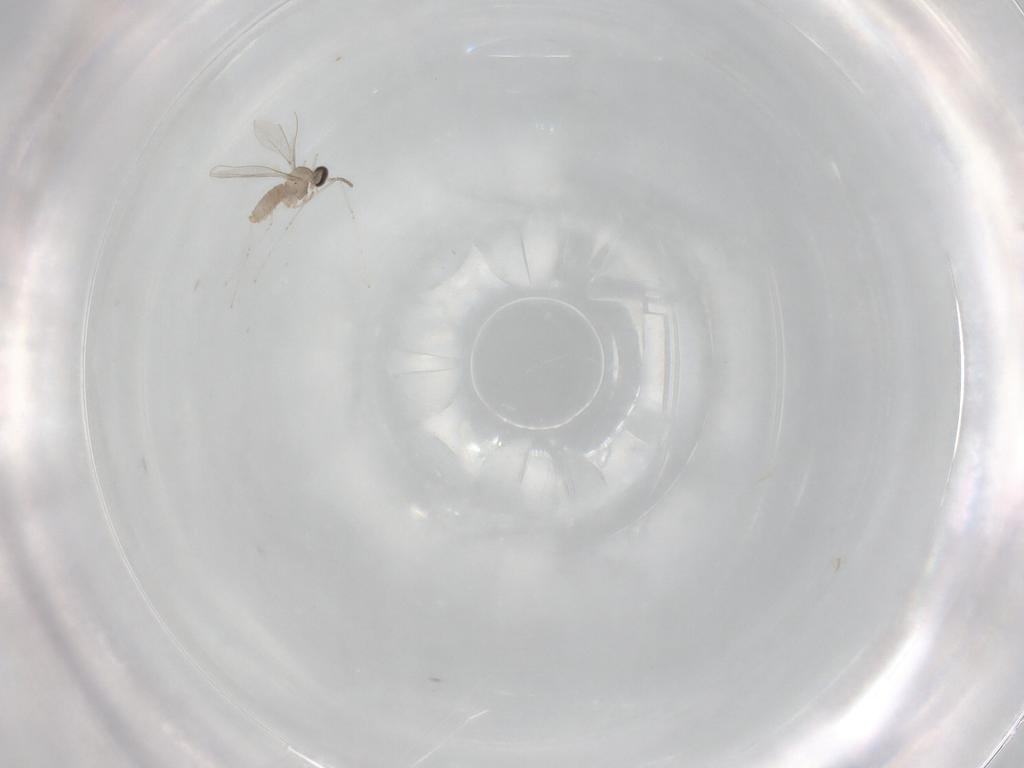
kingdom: Animalia
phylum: Arthropoda
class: Insecta
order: Diptera
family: Cecidomyiidae
